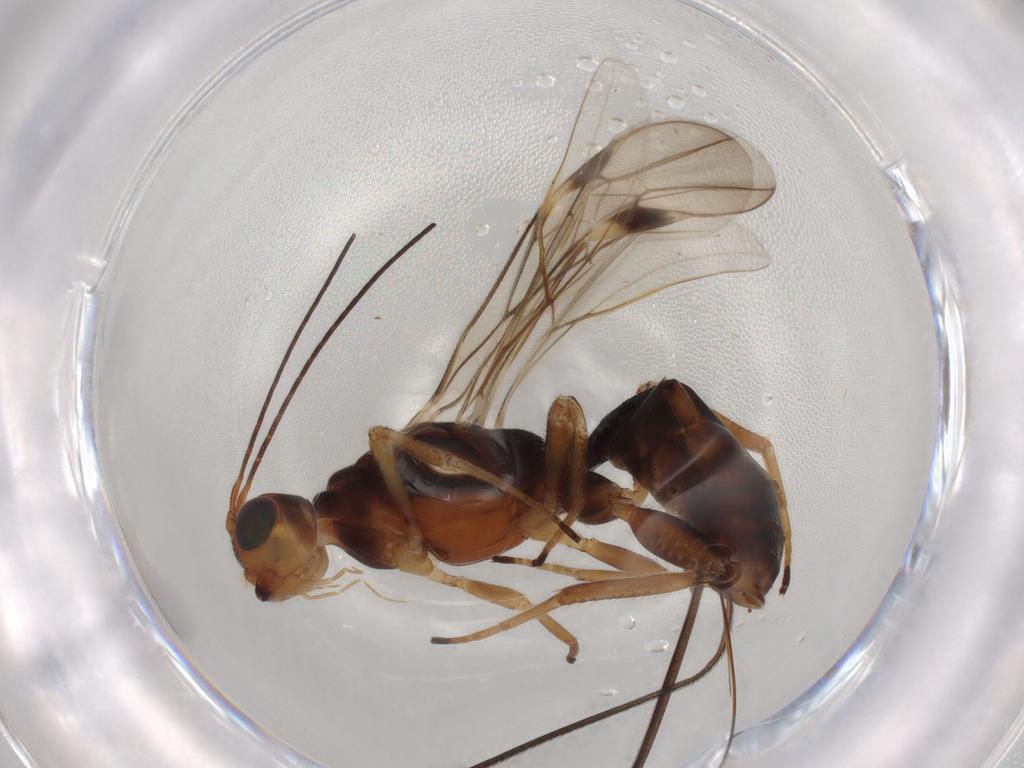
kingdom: Animalia
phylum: Arthropoda
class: Insecta
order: Hymenoptera
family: Braconidae
